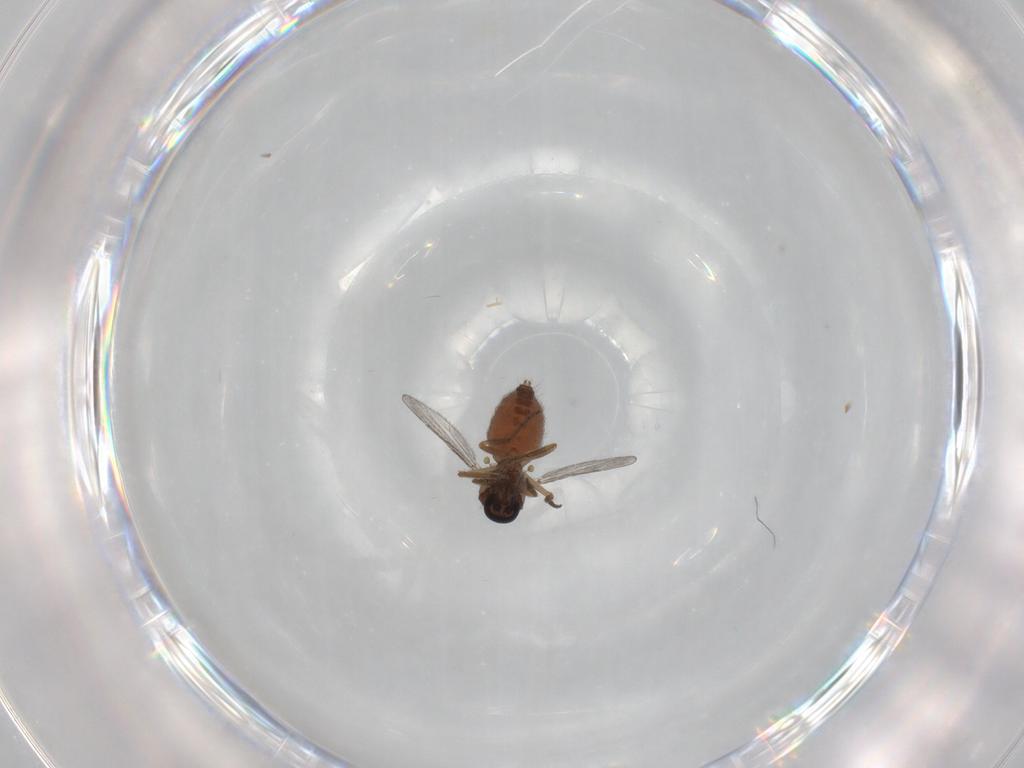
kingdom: Animalia
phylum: Arthropoda
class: Insecta
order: Diptera
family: Ceratopogonidae
